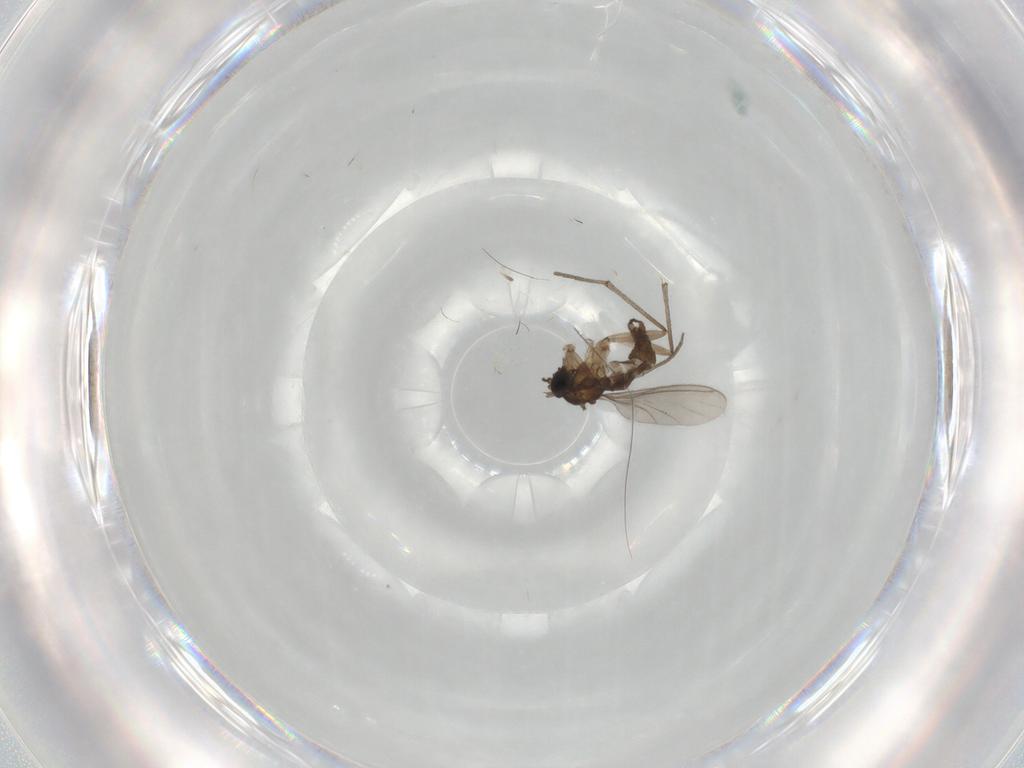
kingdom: Animalia
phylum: Arthropoda
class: Insecta
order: Diptera
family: Sciaridae
